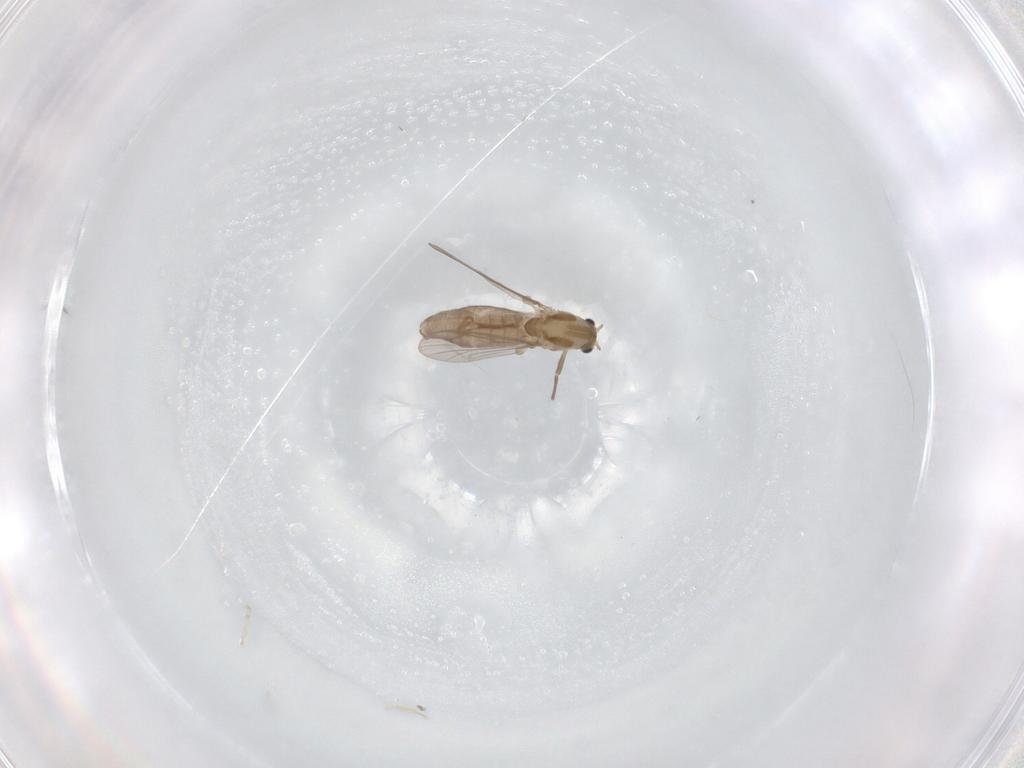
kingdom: Animalia
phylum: Arthropoda
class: Insecta
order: Diptera
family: Chironomidae
